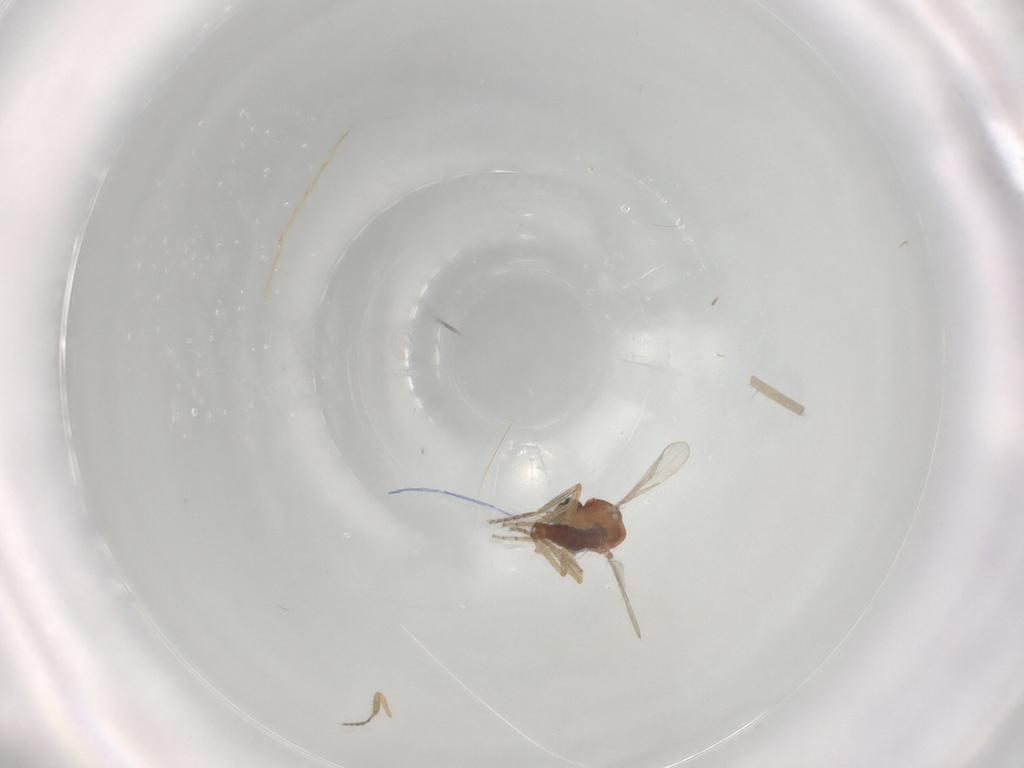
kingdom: Animalia
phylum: Arthropoda
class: Insecta
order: Diptera
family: Ceratopogonidae
